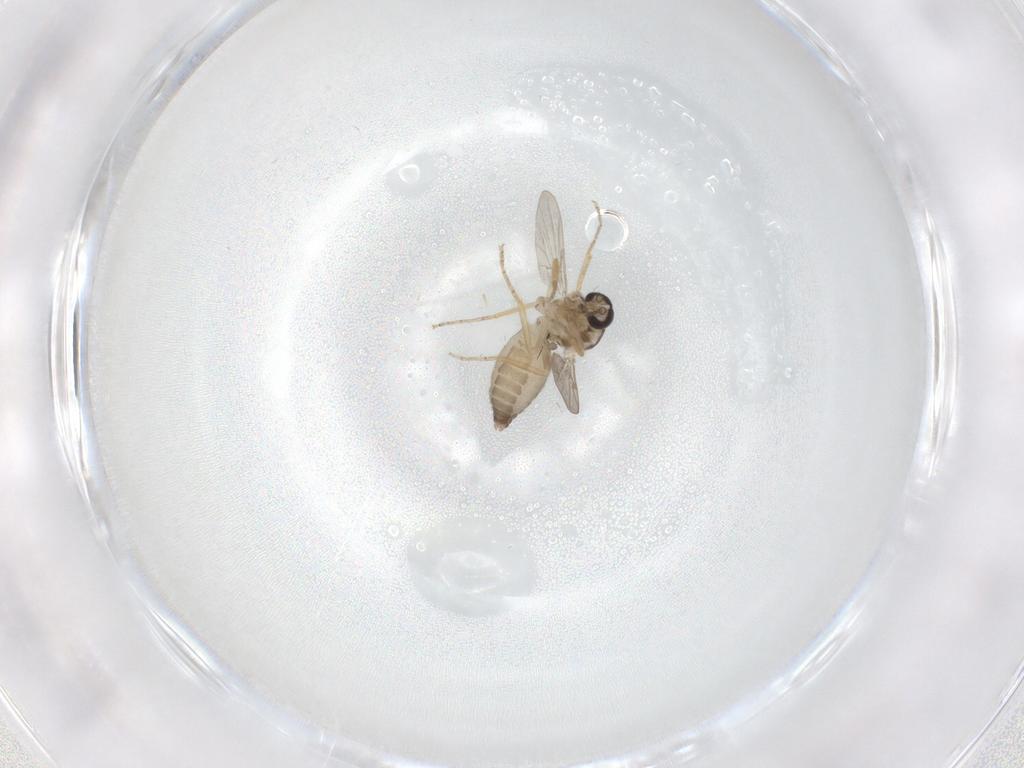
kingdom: Animalia
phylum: Arthropoda
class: Insecta
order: Diptera
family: Ceratopogonidae
